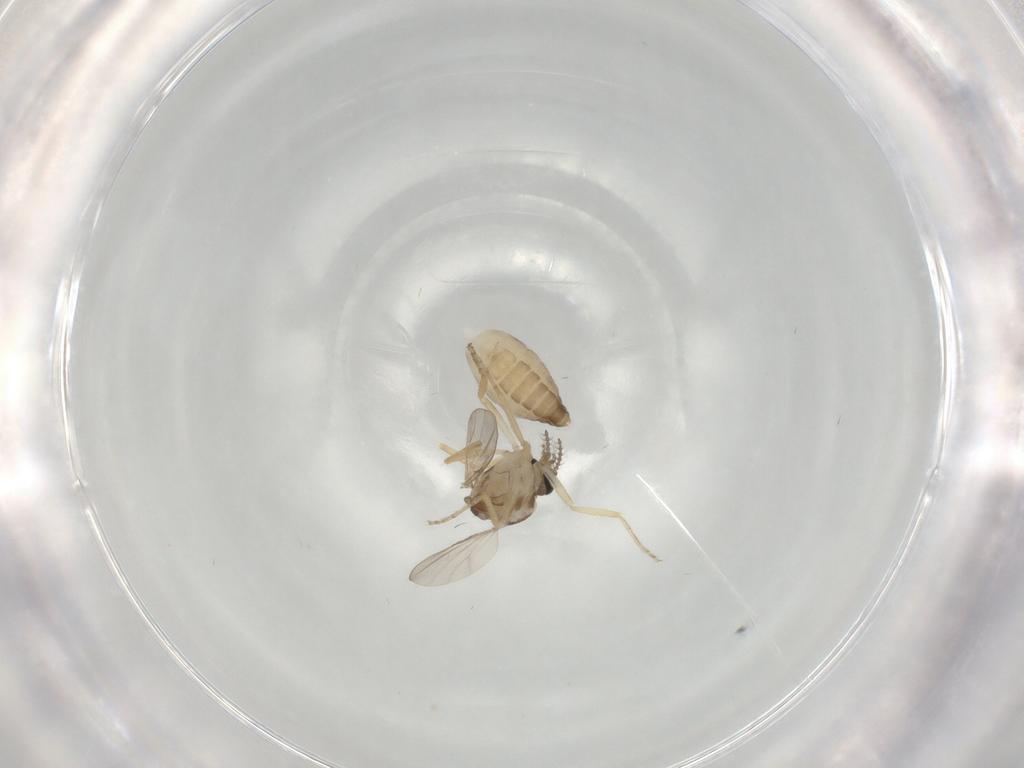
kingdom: Animalia
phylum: Arthropoda
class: Insecta
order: Diptera
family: Ceratopogonidae
